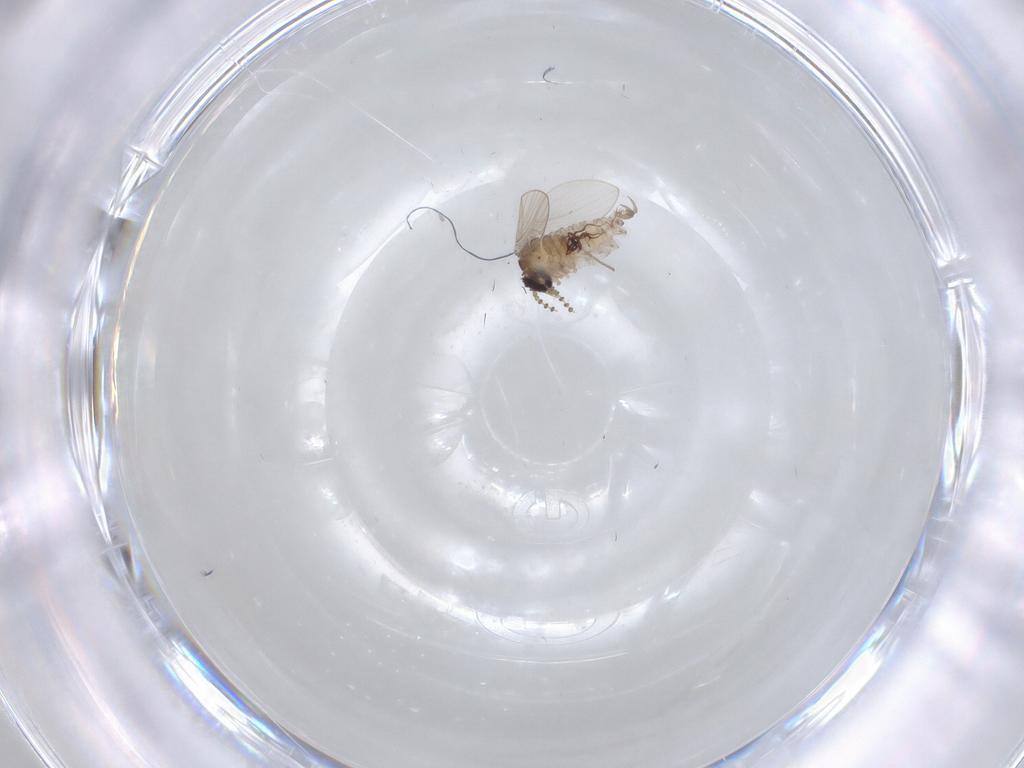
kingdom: Animalia
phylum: Arthropoda
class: Insecta
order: Diptera
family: Psychodidae
